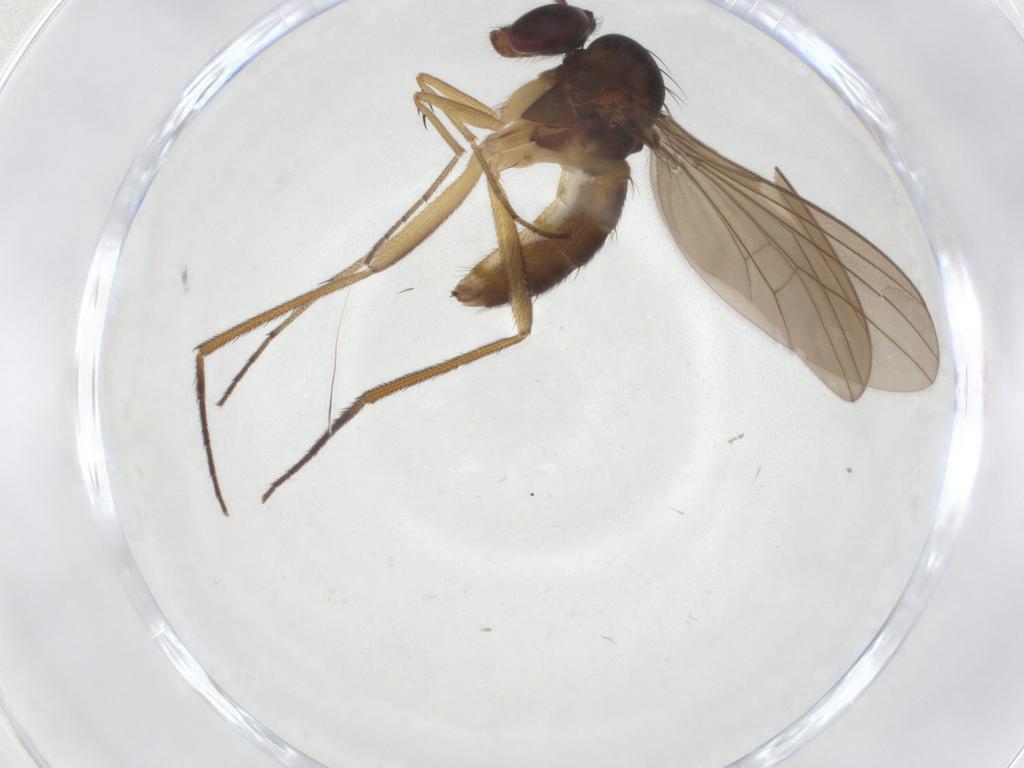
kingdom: Animalia
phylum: Arthropoda
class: Insecta
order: Diptera
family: Dolichopodidae
